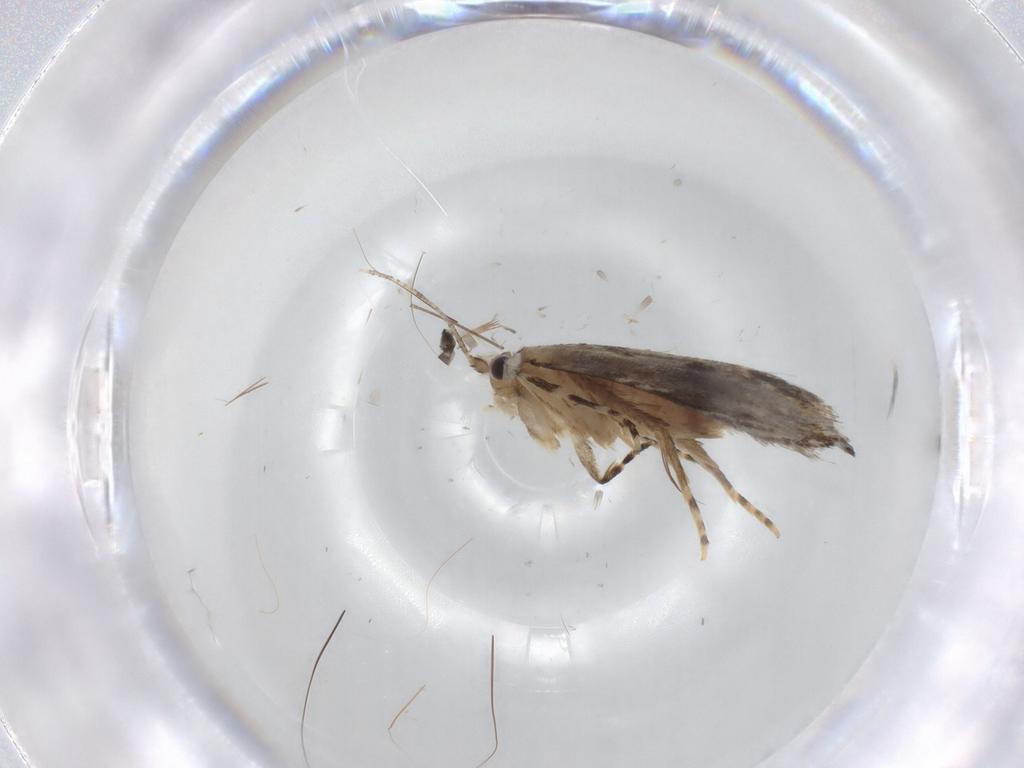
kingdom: Animalia
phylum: Arthropoda
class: Insecta
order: Lepidoptera
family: Tineidae
